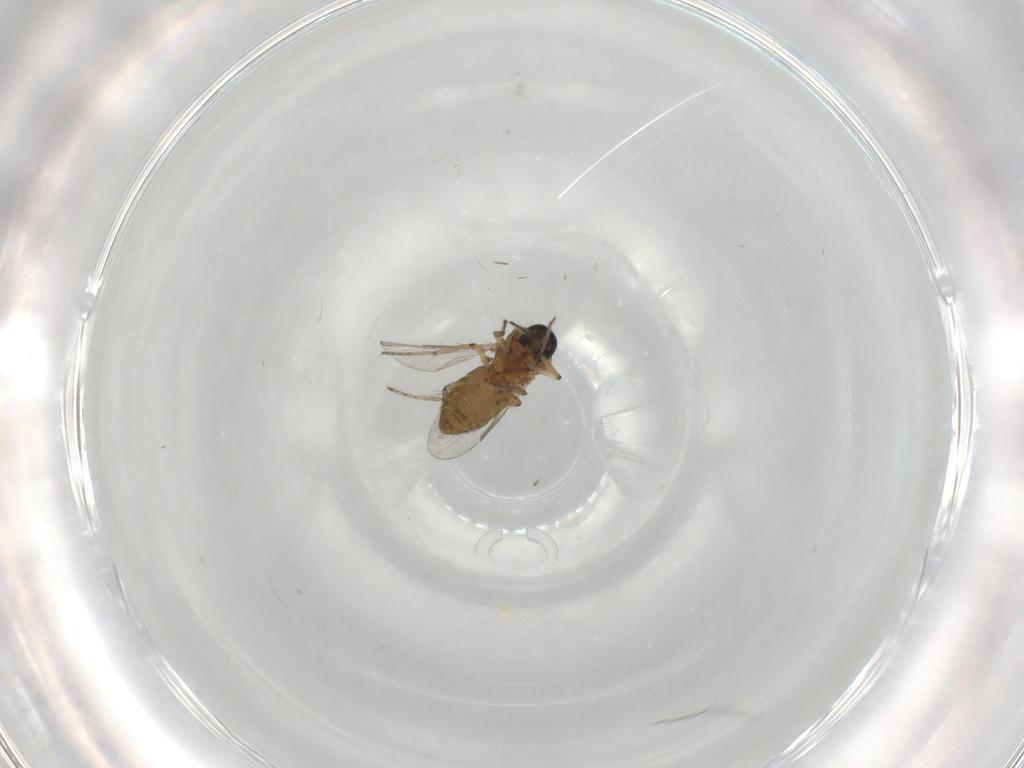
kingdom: Animalia
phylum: Arthropoda
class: Insecta
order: Diptera
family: Ceratopogonidae
